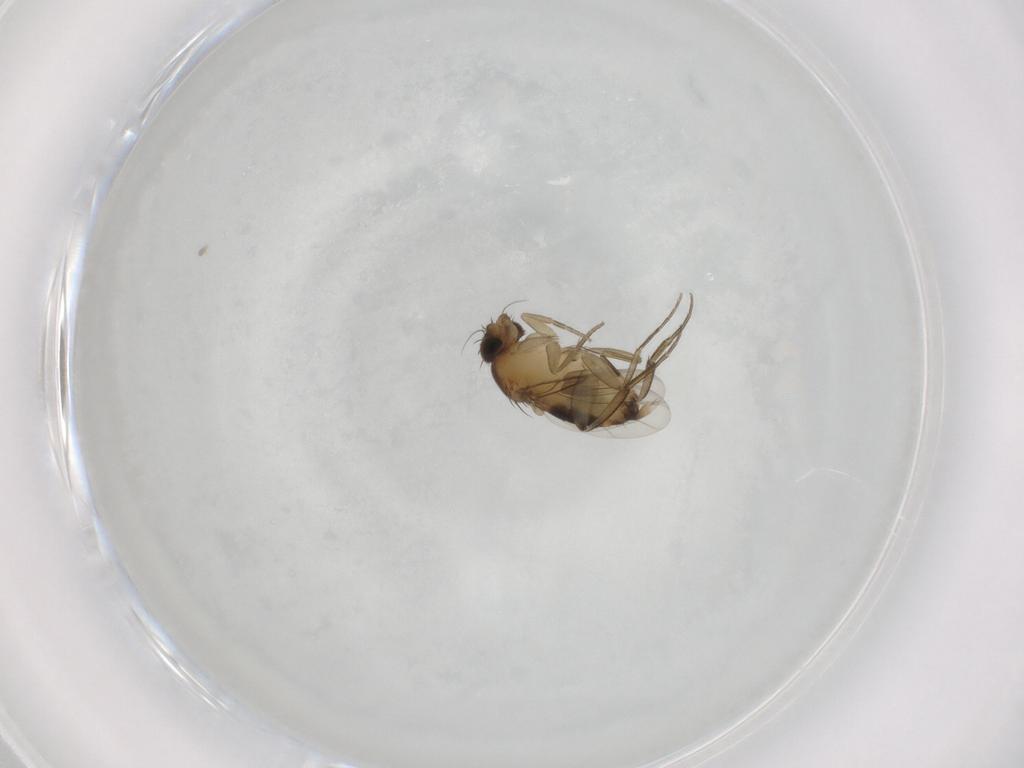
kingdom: Animalia
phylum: Arthropoda
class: Insecta
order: Diptera
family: Phoridae
